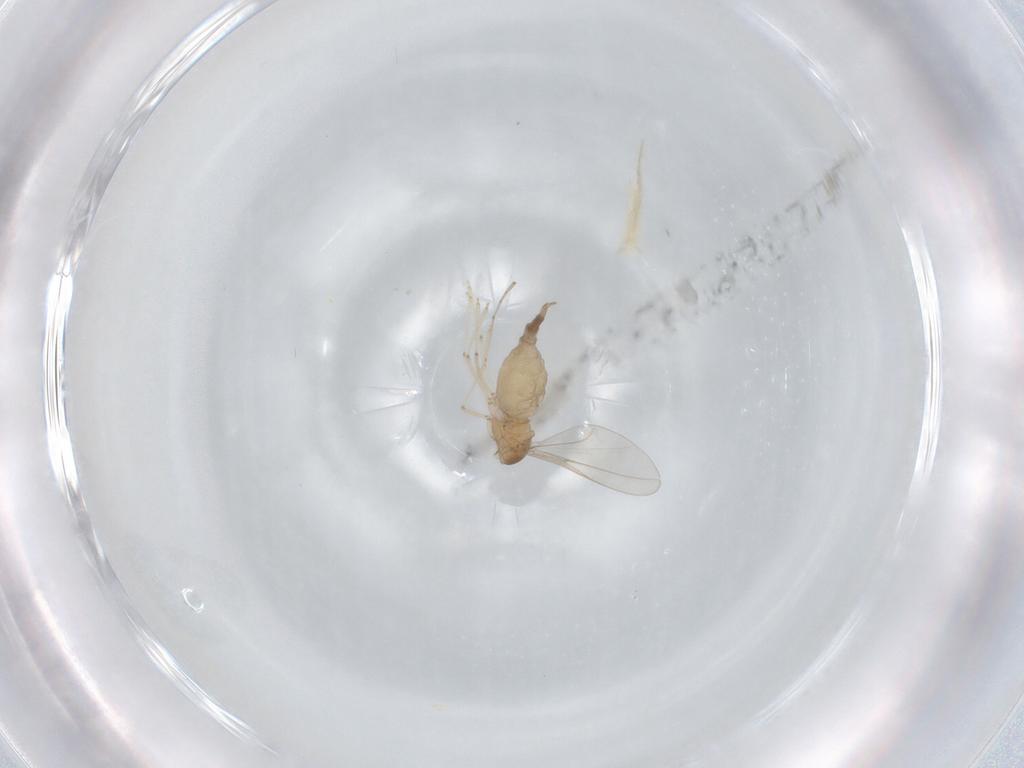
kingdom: Animalia
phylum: Arthropoda
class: Insecta
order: Diptera
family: Cecidomyiidae
